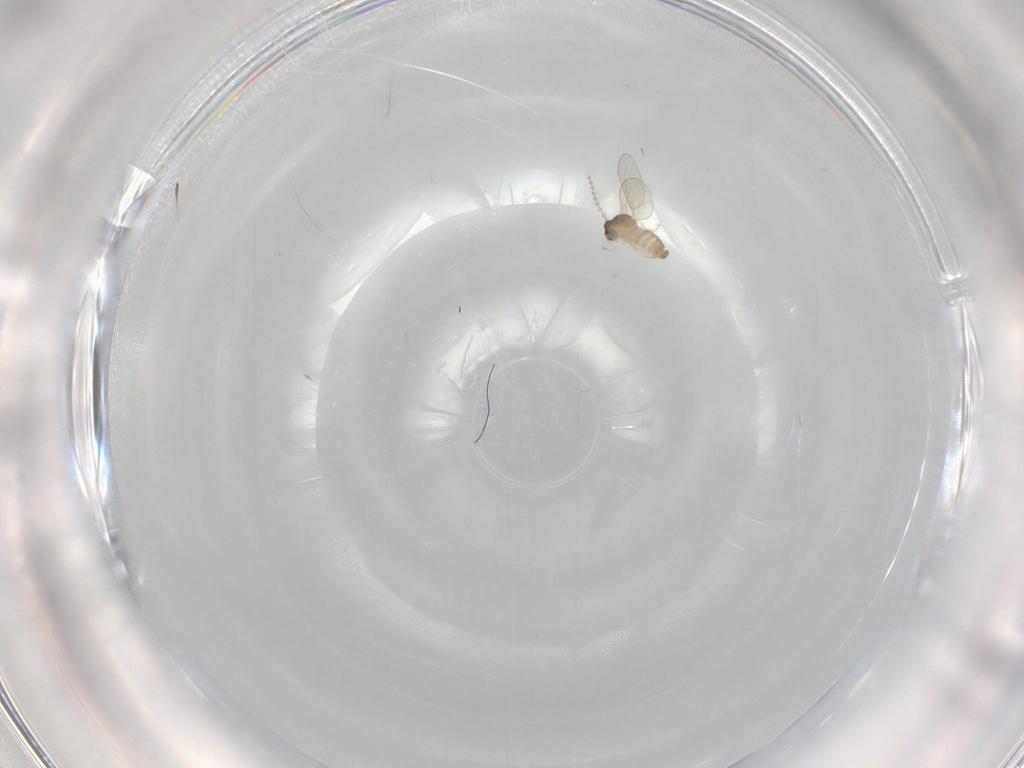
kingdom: Animalia
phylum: Arthropoda
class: Insecta
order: Diptera
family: Cecidomyiidae
